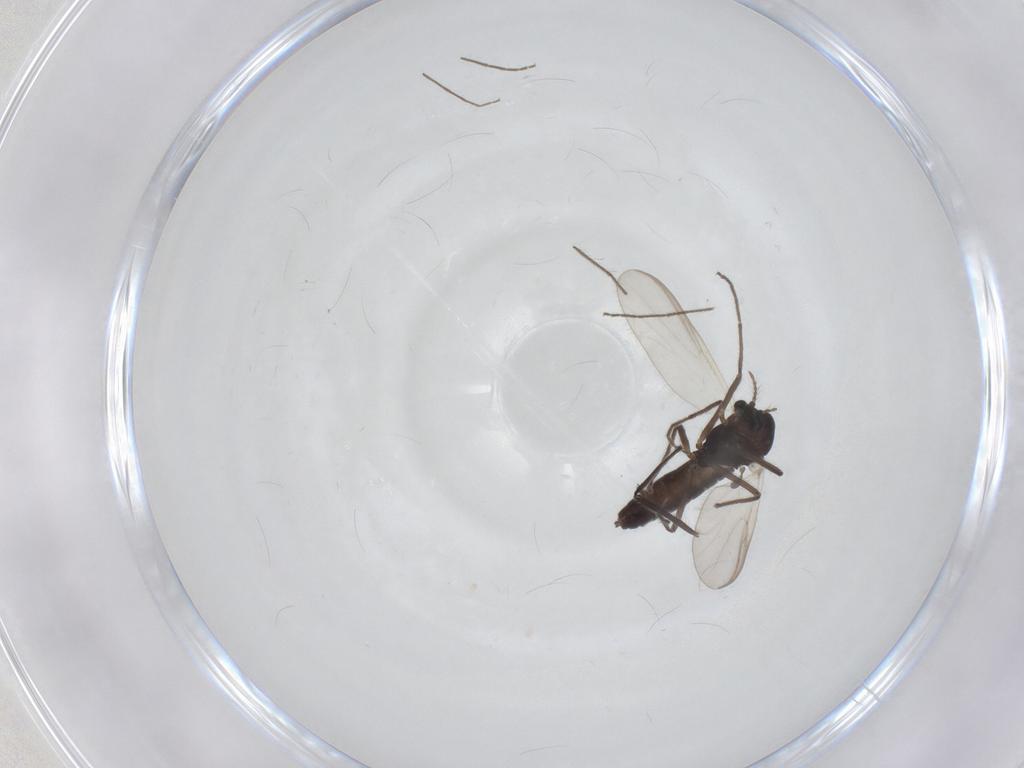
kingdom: Animalia
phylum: Arthropoda
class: Insecta
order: Diptera
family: Chironomidae
